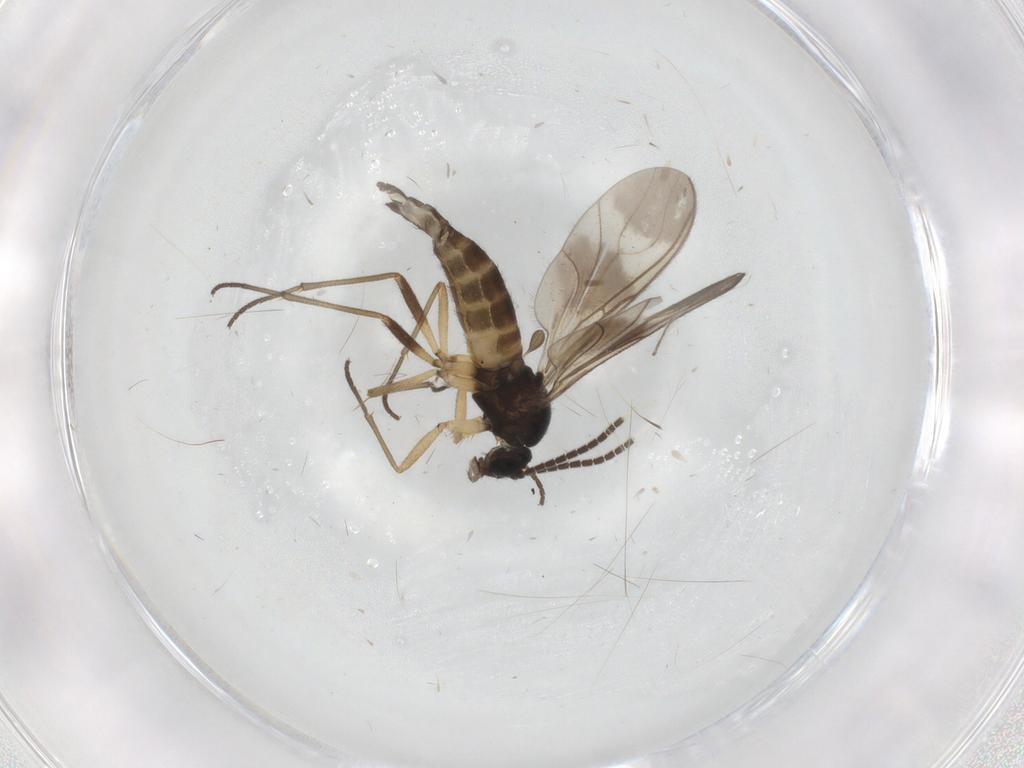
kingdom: Animalia
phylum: Arthropoda
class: Insecta
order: Diptera
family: Sciaridae
